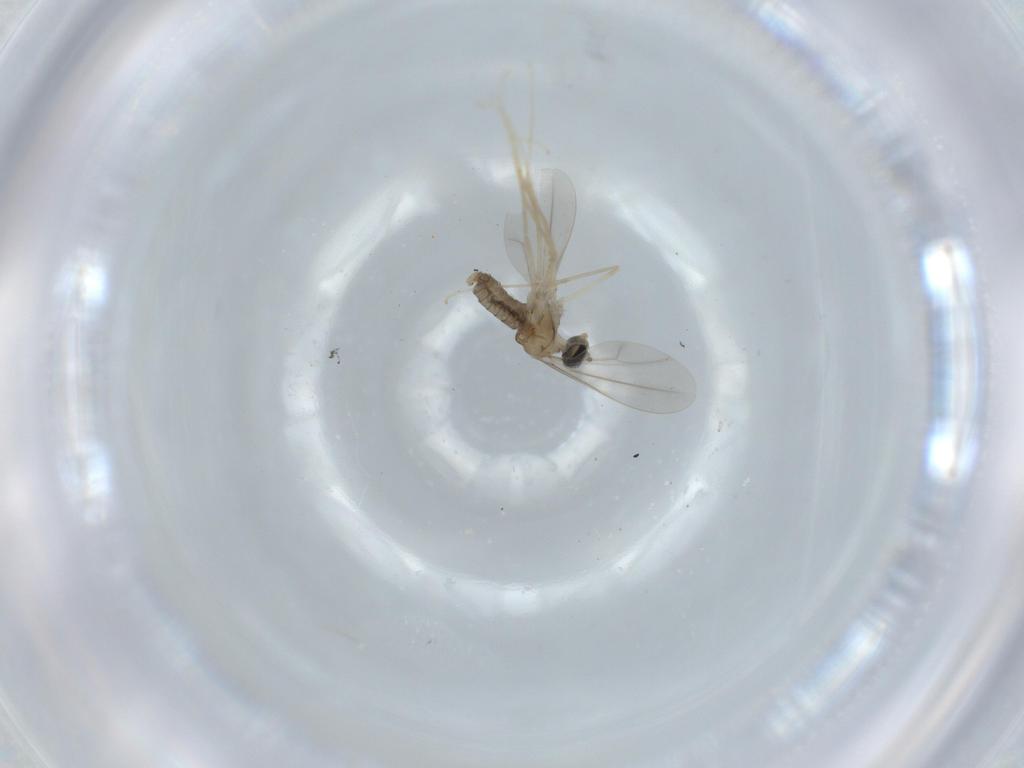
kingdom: Animalia
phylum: Arthropoda
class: Insecta
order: Diptera
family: Cecidomyiidae
